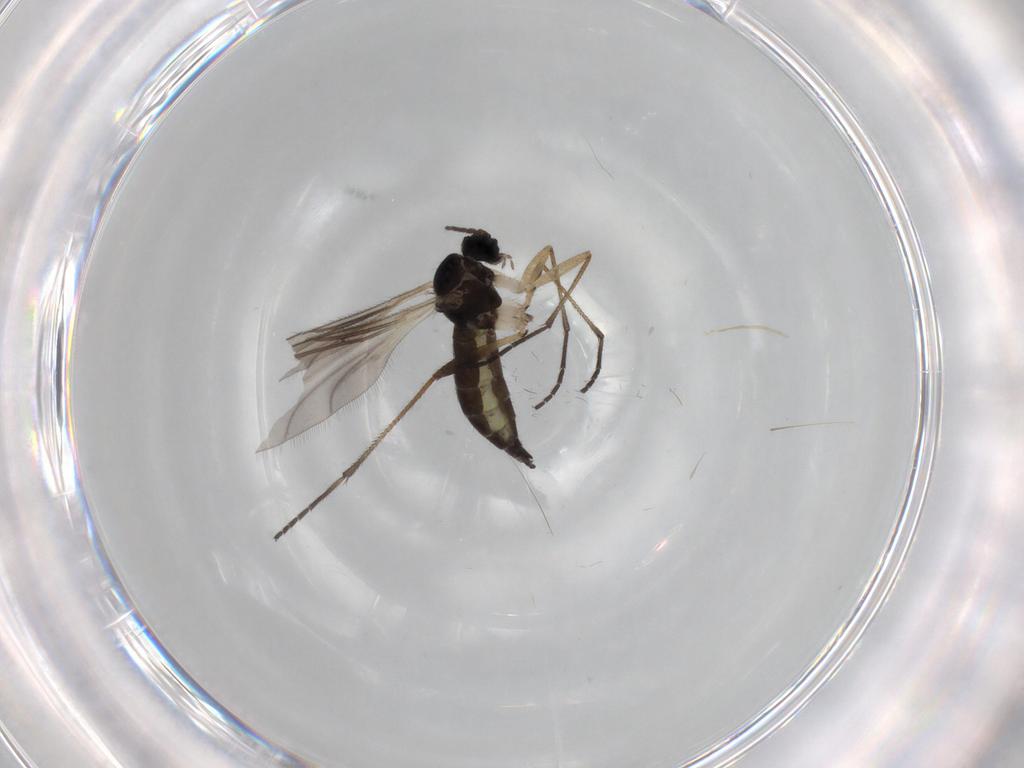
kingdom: Animalia
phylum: Arthropoda
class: Insecta
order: Diptera
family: Sciaridae
